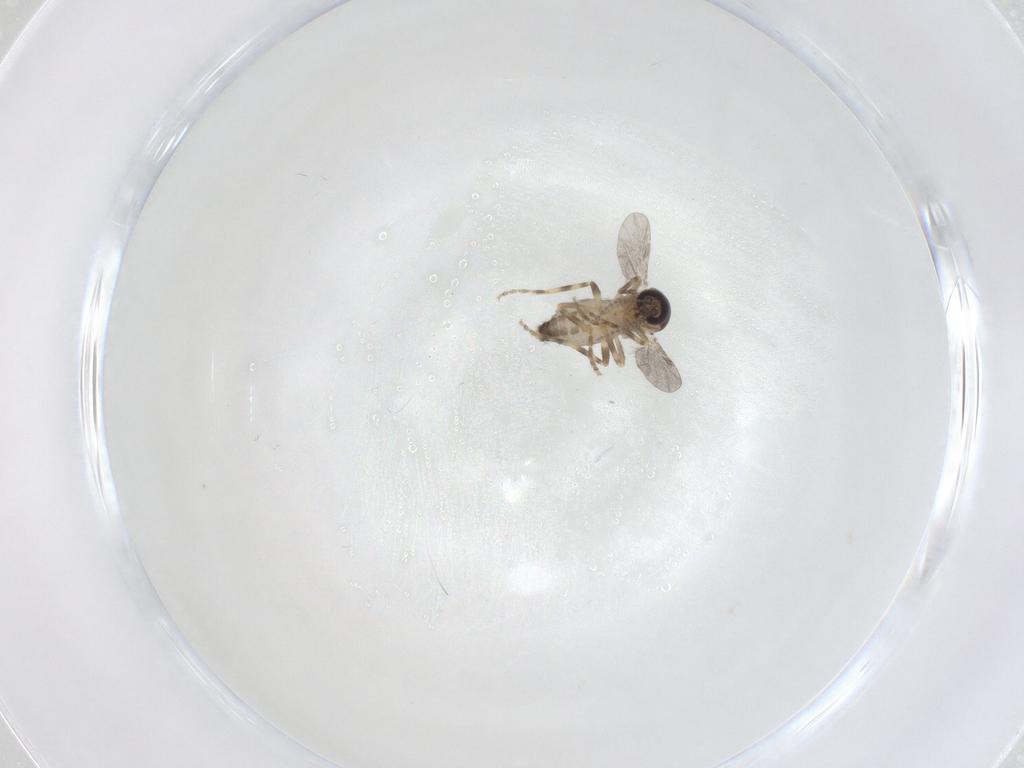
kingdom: Animalia
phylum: Arthropoda
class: Insecta
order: Diptera
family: Ceratopogonidae
